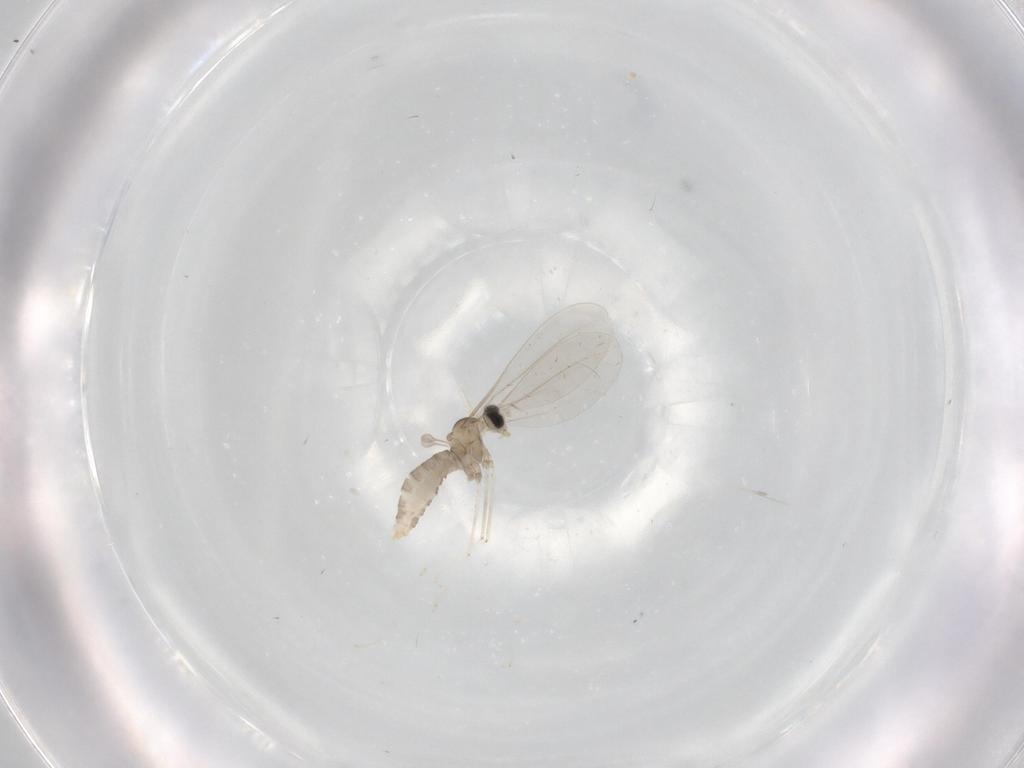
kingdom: Animalia
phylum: Arthropoda
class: Insecta
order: Diptera
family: Cecidomyiidae
